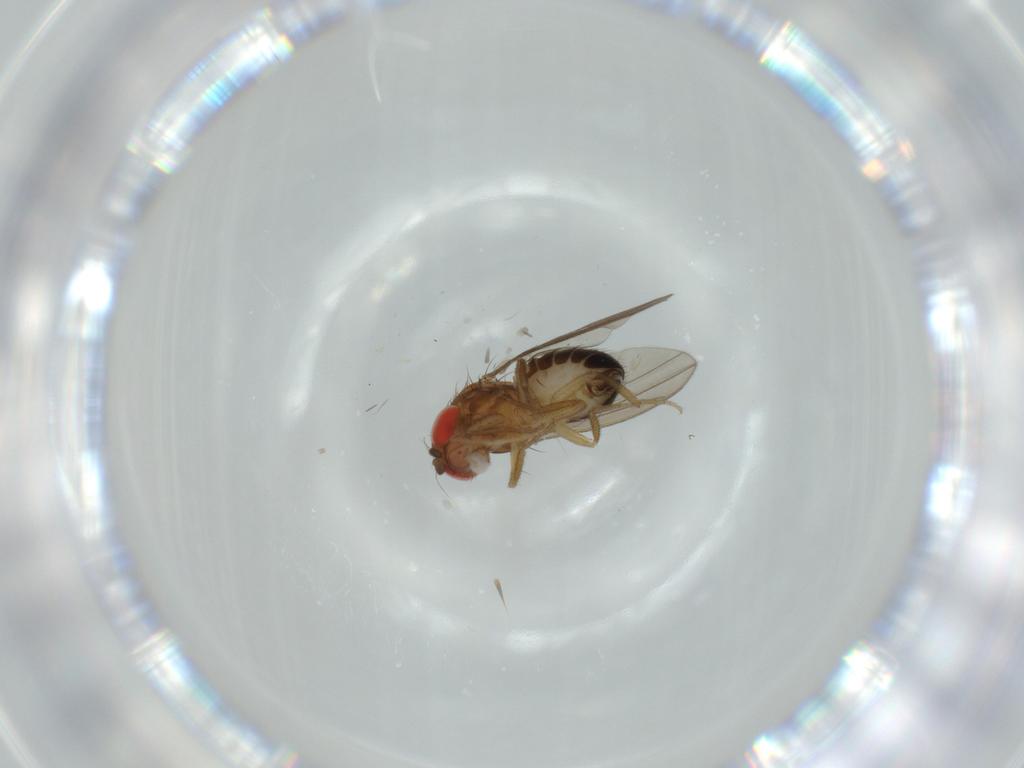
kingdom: Animalia
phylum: Arthropoda
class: Insecta
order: Diptera
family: Drosophilidae
